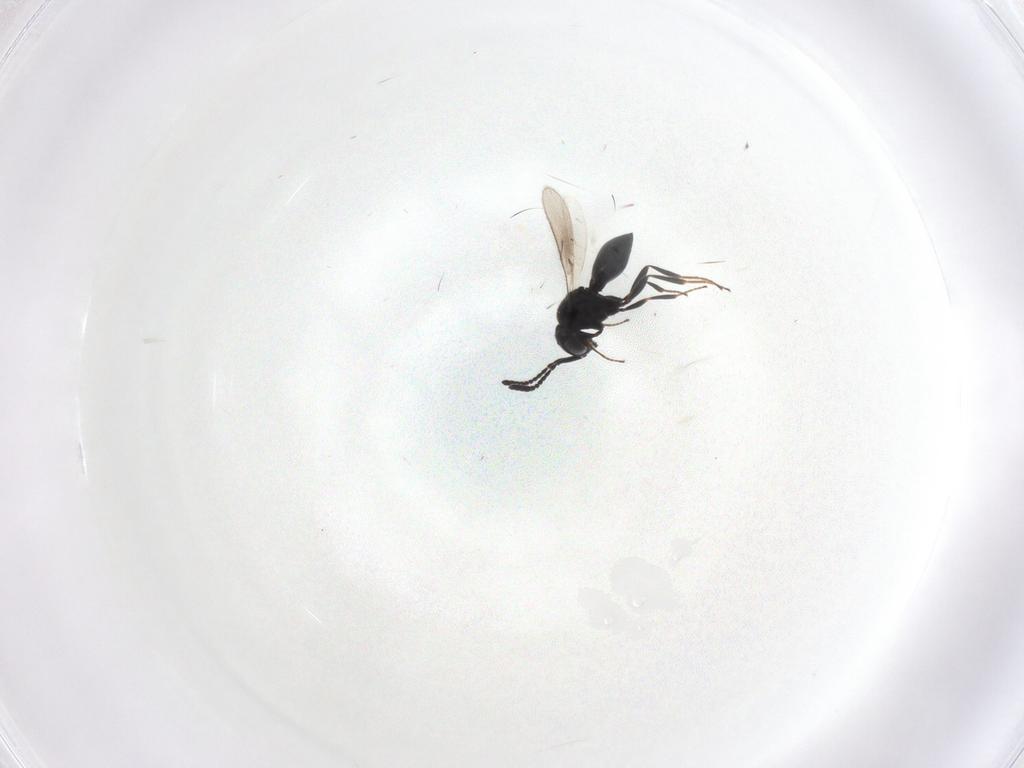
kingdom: Animalia
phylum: Arthropoda
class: Insecta
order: Hymenoptera
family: Scelionidae
